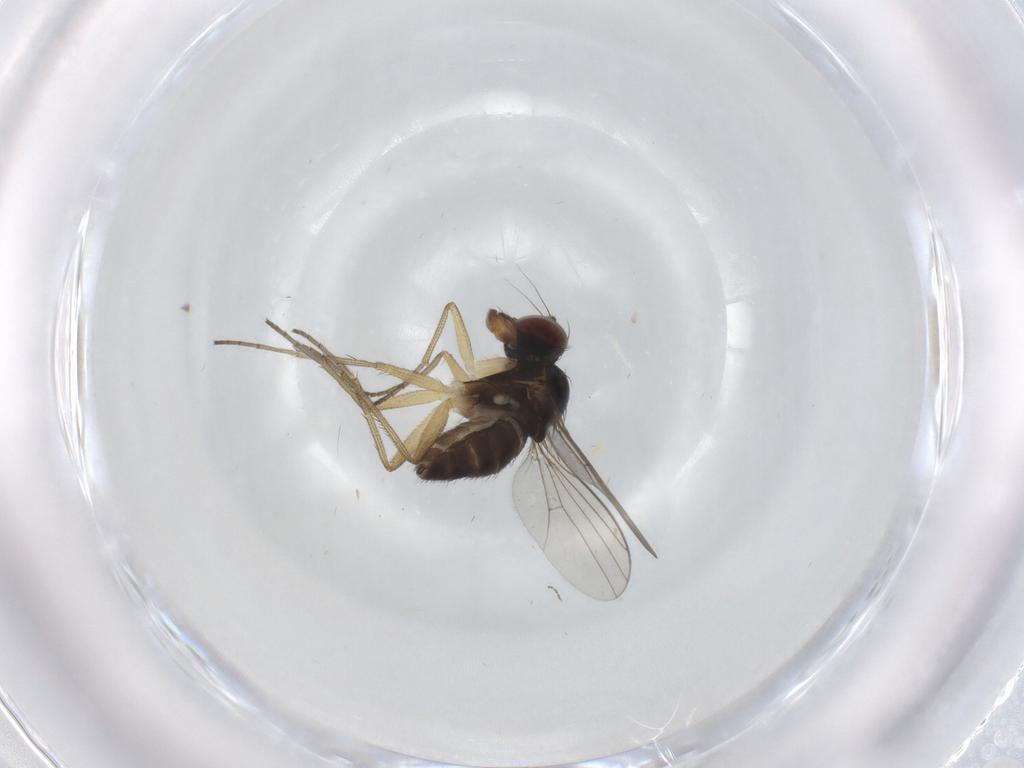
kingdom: Animalia
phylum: Arthropoda
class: Insecta
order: Diptera
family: Dolichopodidae
